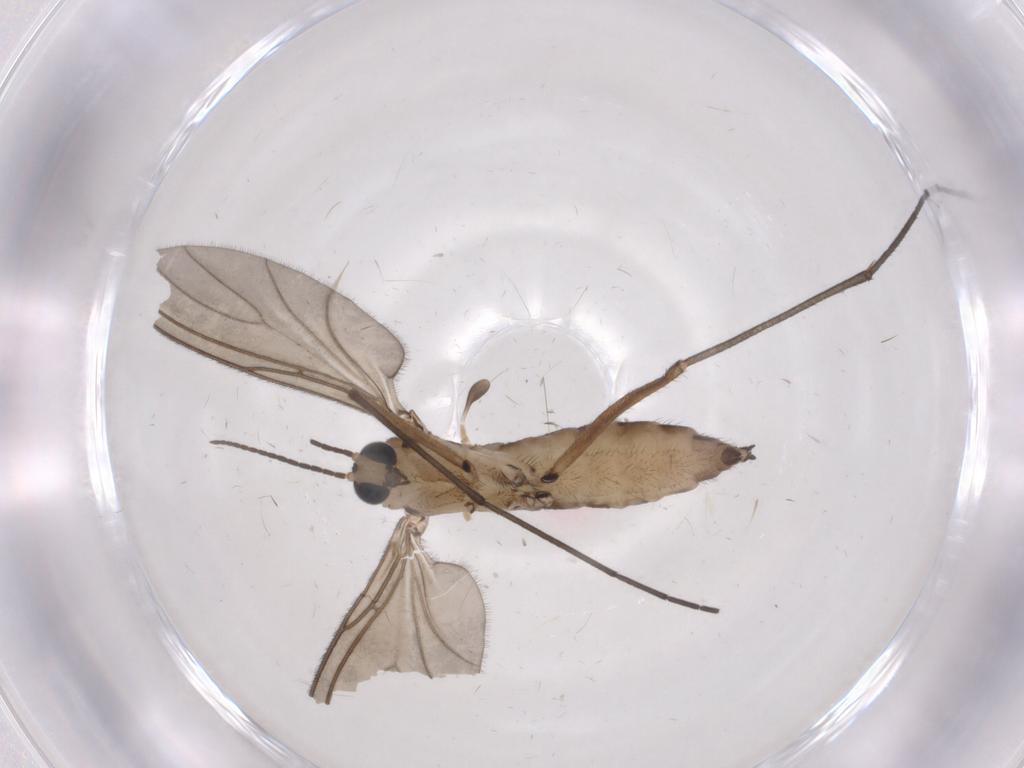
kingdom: Animalia
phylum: Arthropoda
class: Insecta
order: Diptera
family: Sciaridae
